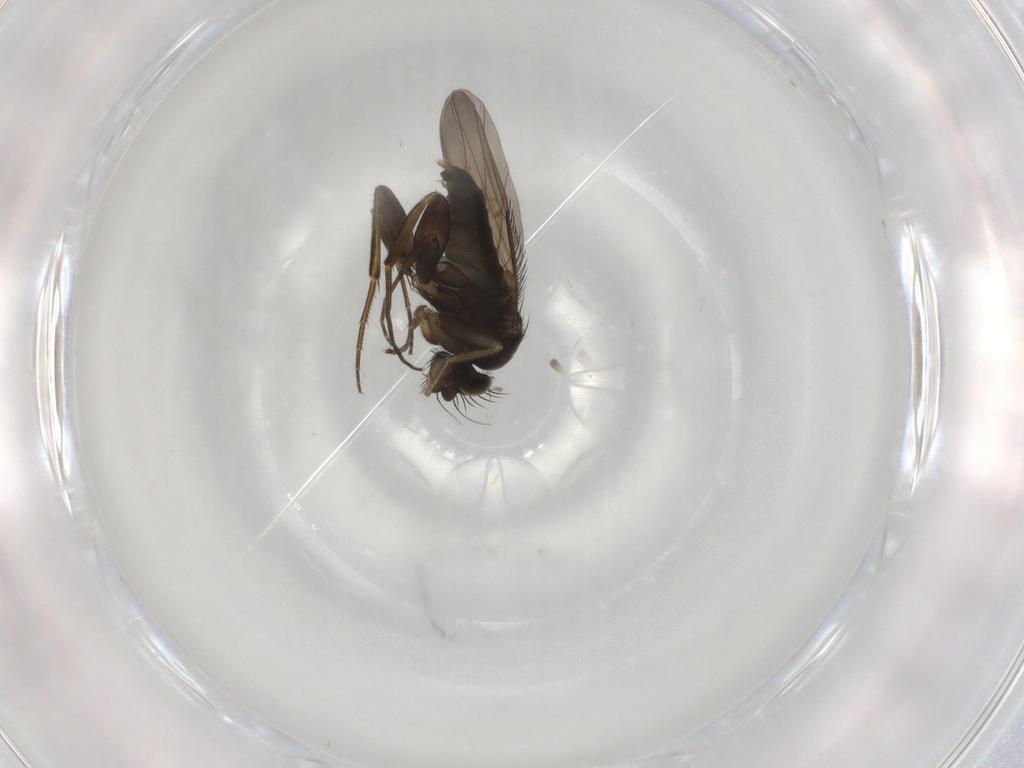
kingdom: Animalia
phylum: Arthropoda
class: Insecta
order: Diptera
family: Phoridae
